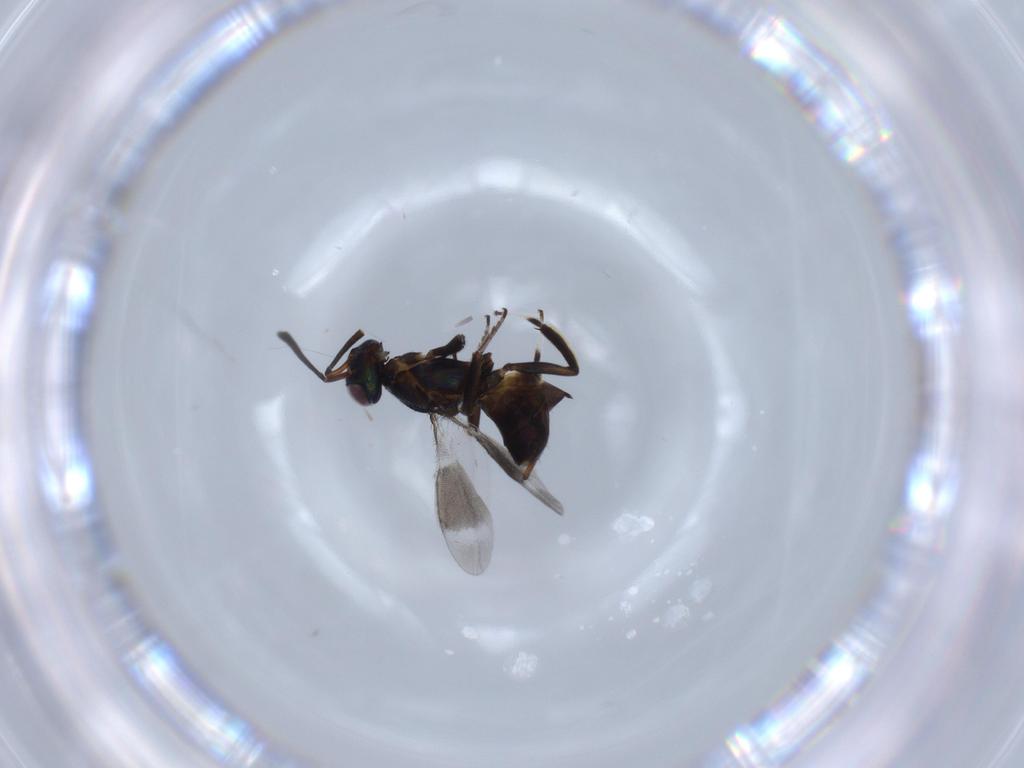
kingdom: Animalia
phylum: Arthropoda
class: Insecta
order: Hymenoptera
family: Eupelmidae
